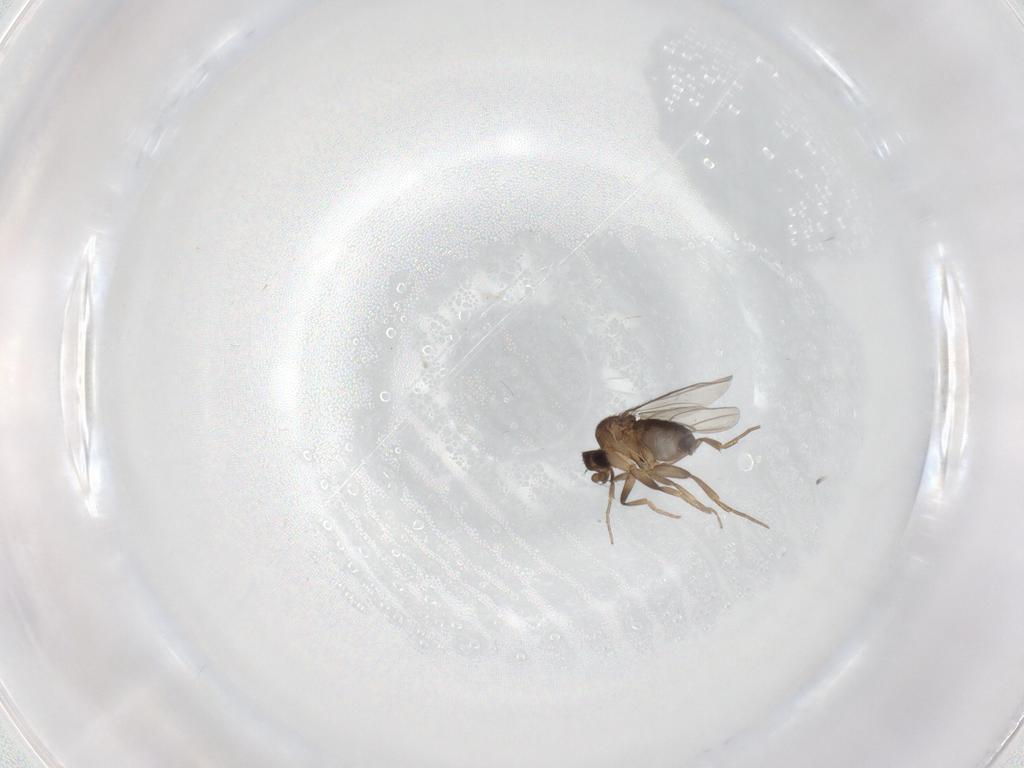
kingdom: Animalia
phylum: Arthropoda
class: Insecta
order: Diptera
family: Chironomidae
